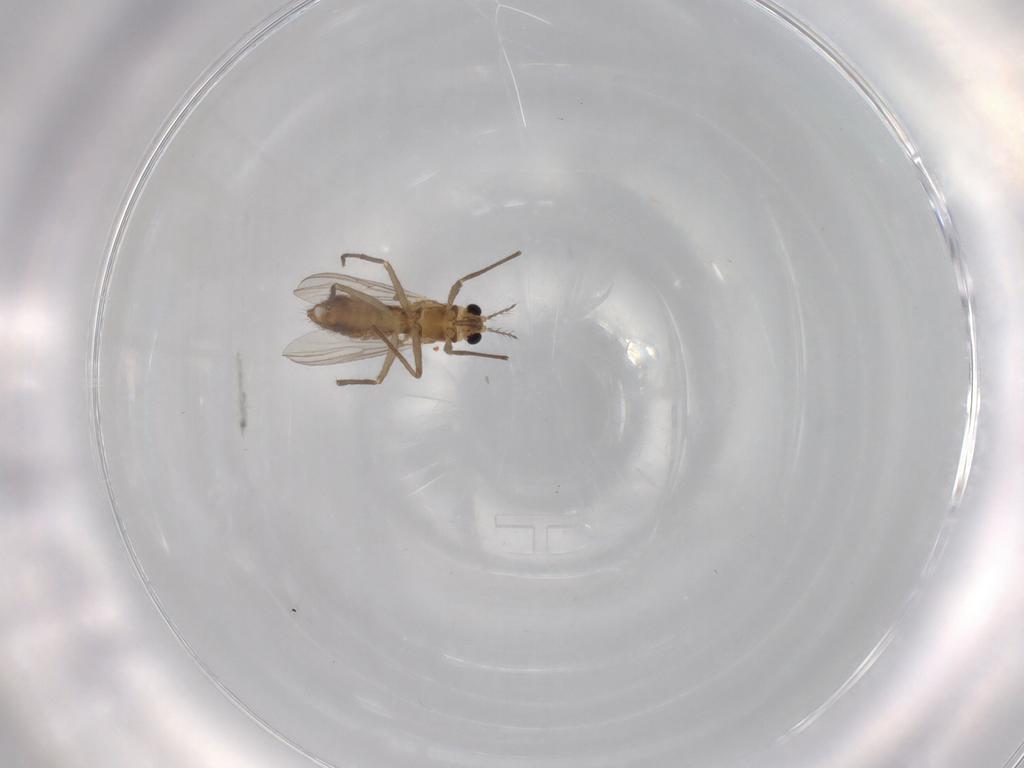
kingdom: Animalia
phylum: Arthropoda
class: Insecta
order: Diptera
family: Chironomidae
